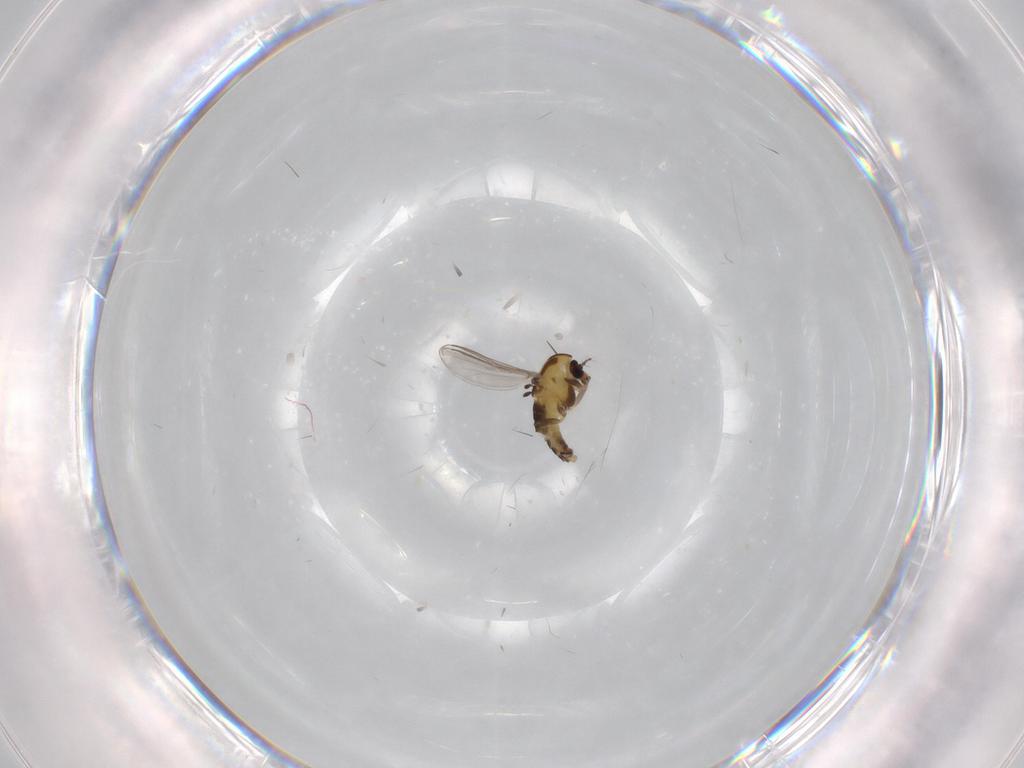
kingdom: Animalia
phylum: Arthropoda
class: Insecta
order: Diptera
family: Chironomidae
